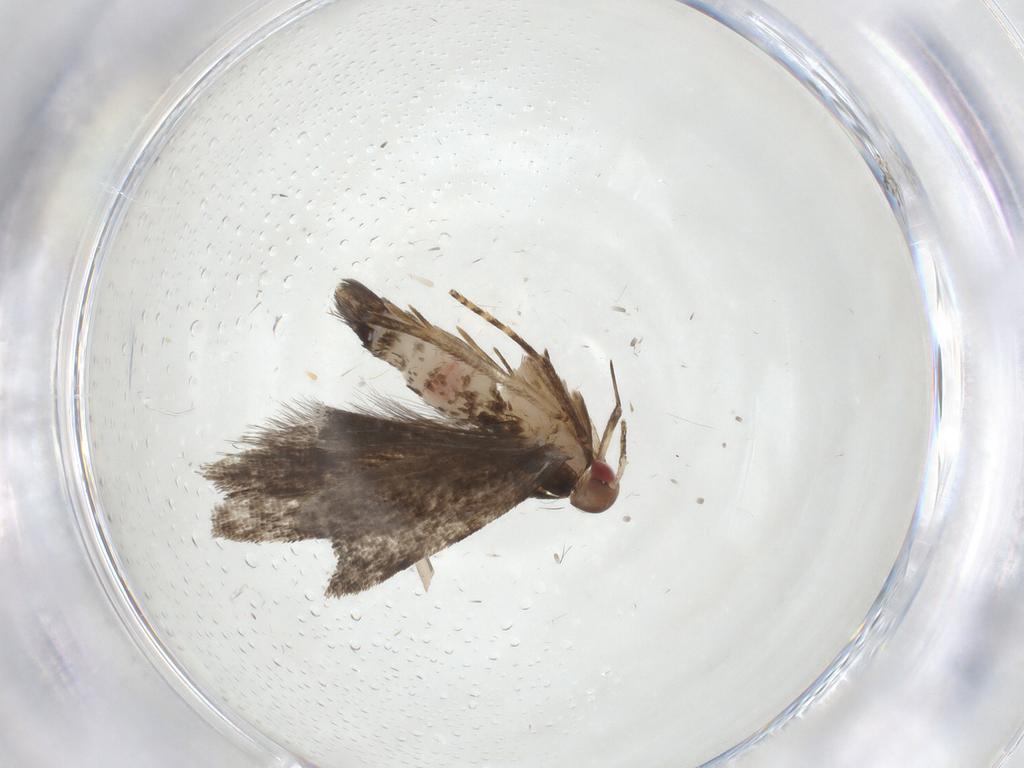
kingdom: Animalia
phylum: Arthropoda
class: Insecta
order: Lepidoptera
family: Gelechiidae
